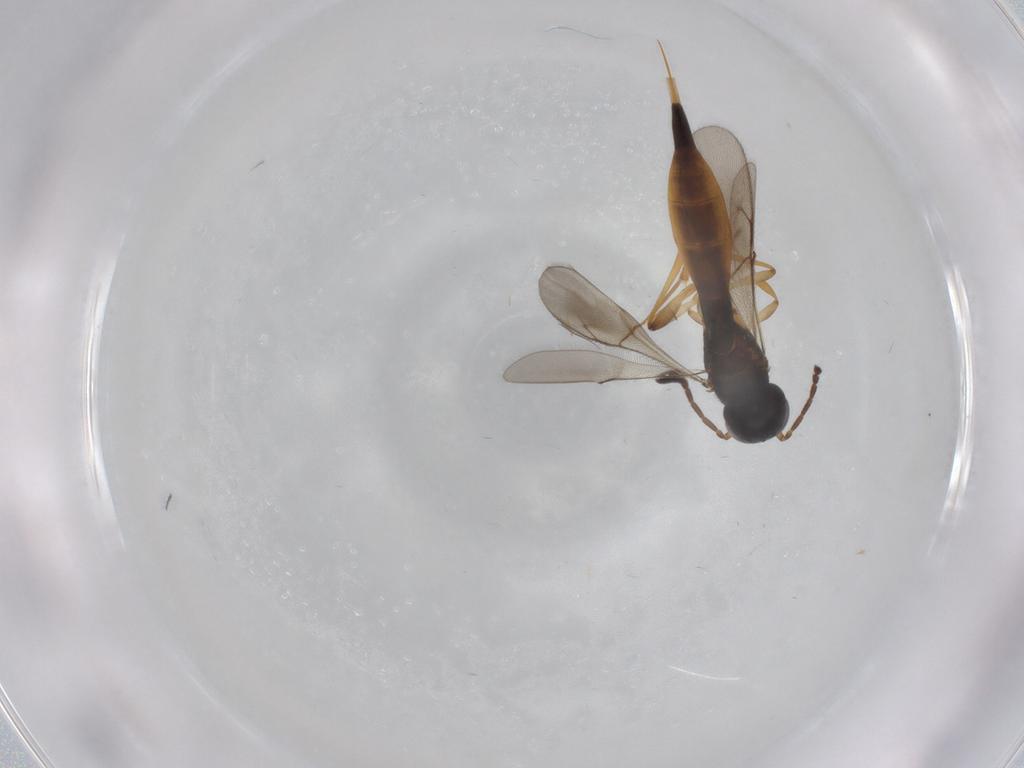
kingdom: Animalia
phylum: Arthropoda
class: Insecta
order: Hymenoptera
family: Scelionidae
